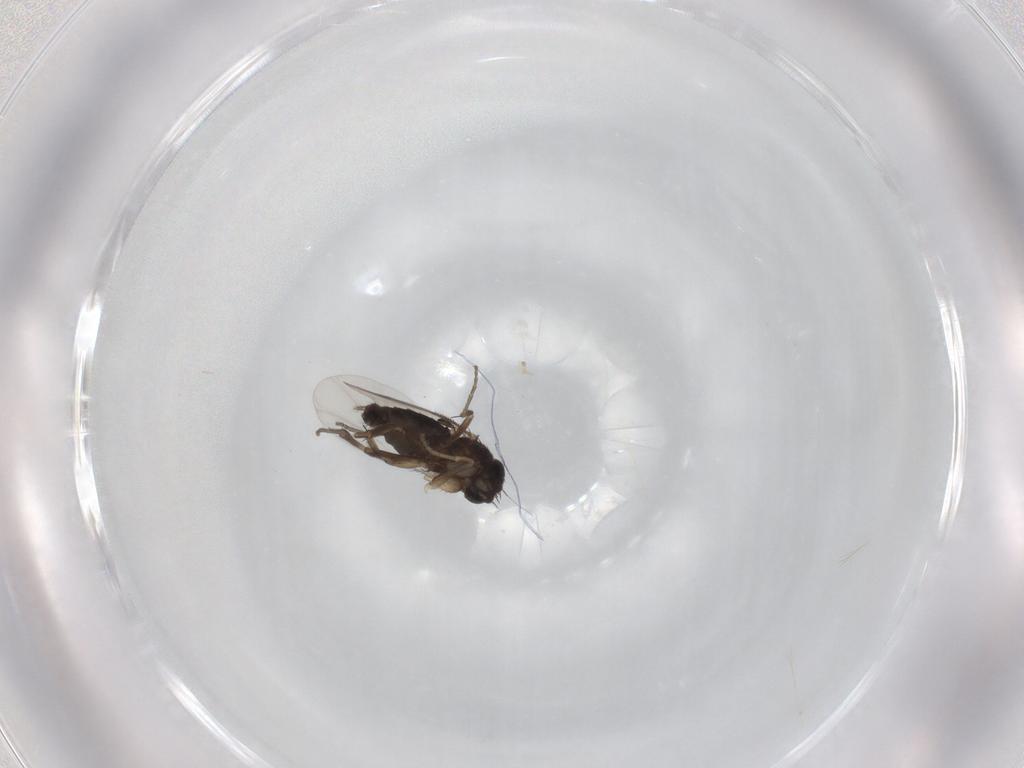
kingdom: Animalia
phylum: Arthropoda
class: Insecta
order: Diptera
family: Phoridae
